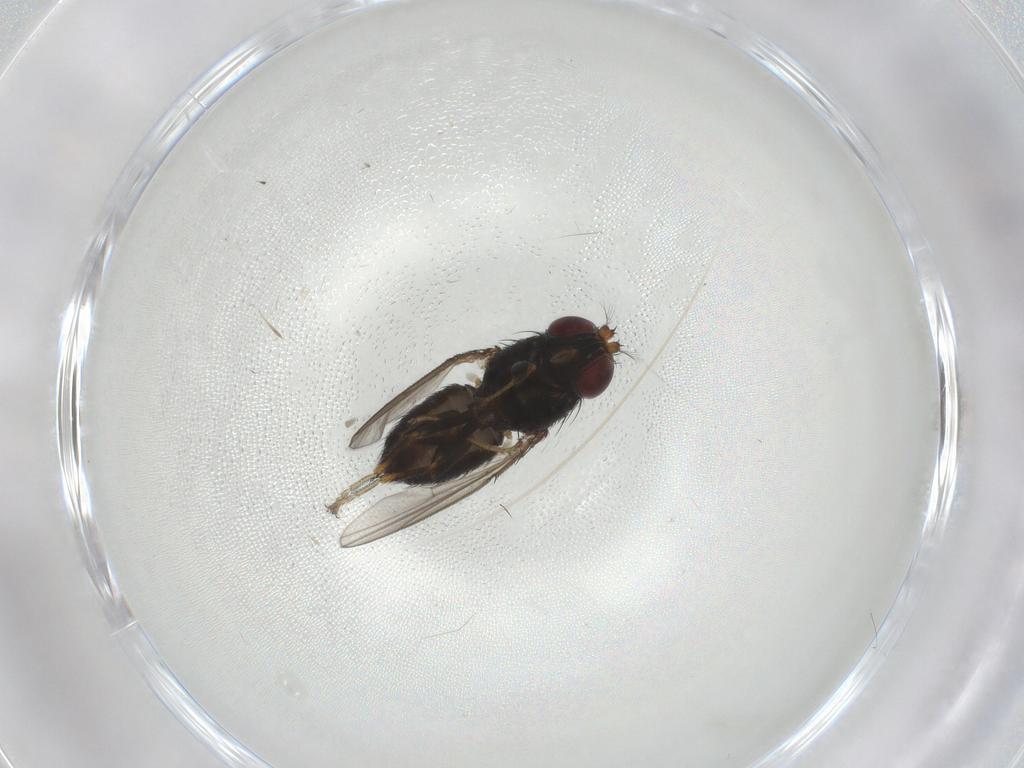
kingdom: Animalia
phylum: Arthropoda
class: Insecta
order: Diptera
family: Ephydridae
